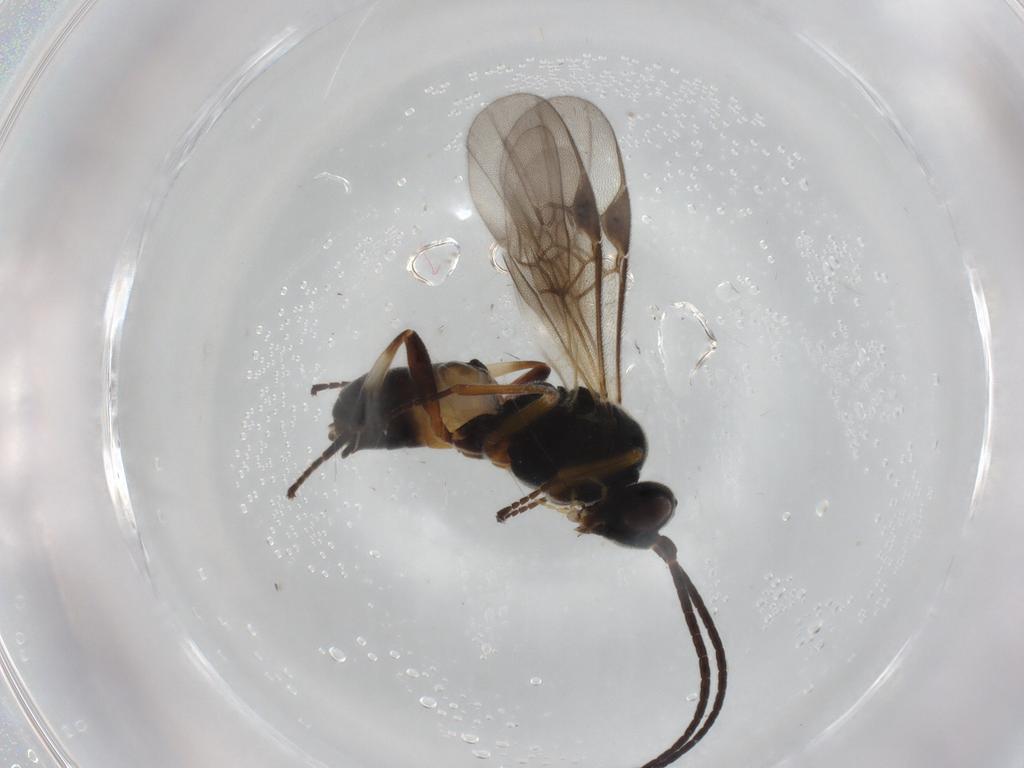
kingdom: Animalia
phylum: Arthropoda
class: Insecta
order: Hymenoptera
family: Braconidae
